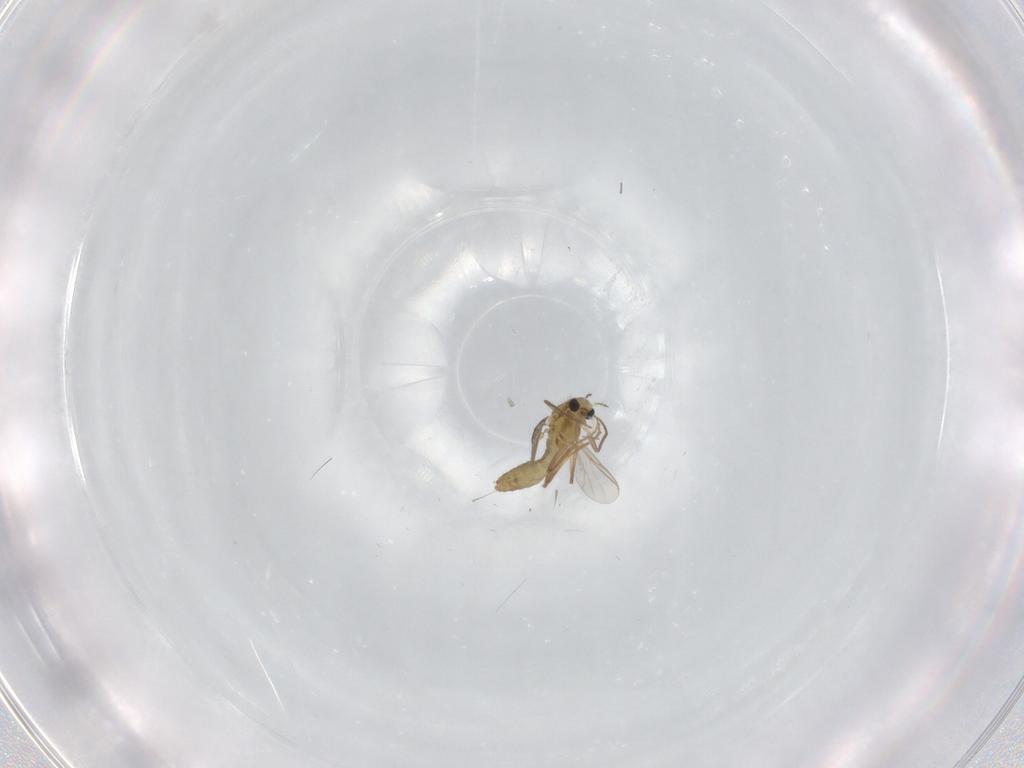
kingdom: Animalia
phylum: Arthropoda
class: Insecta
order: Diptera
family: Chironomidae
